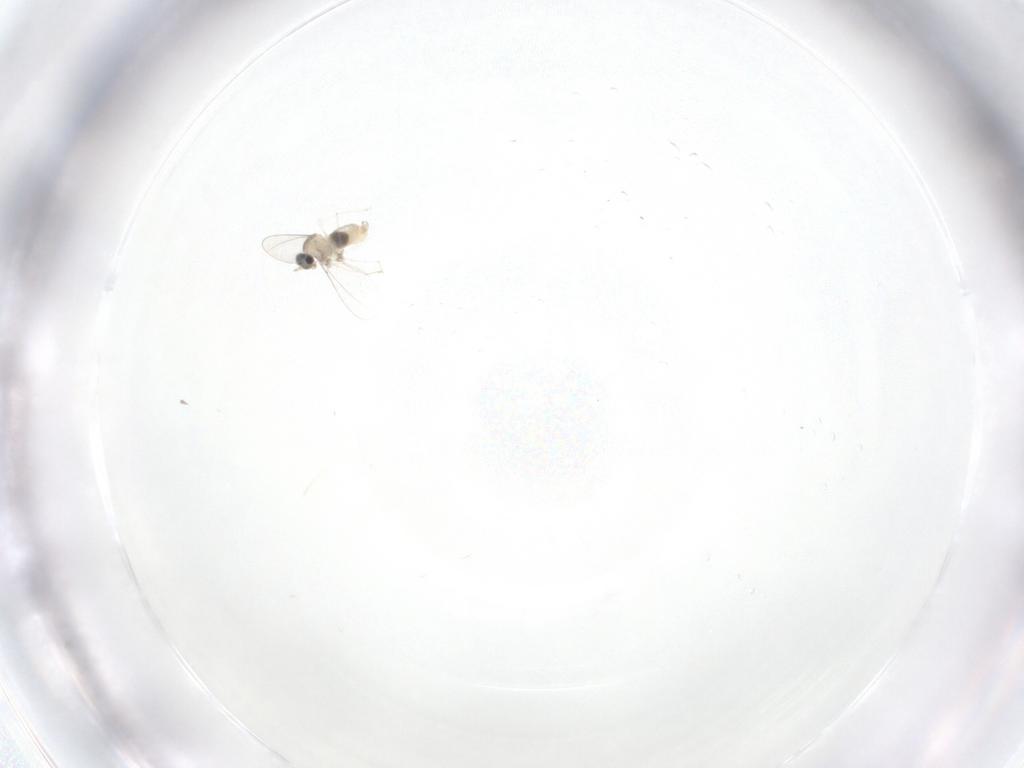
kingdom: Animalia
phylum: Arthropoda
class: Insecta
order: Diptera
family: Cecidomyiidae
